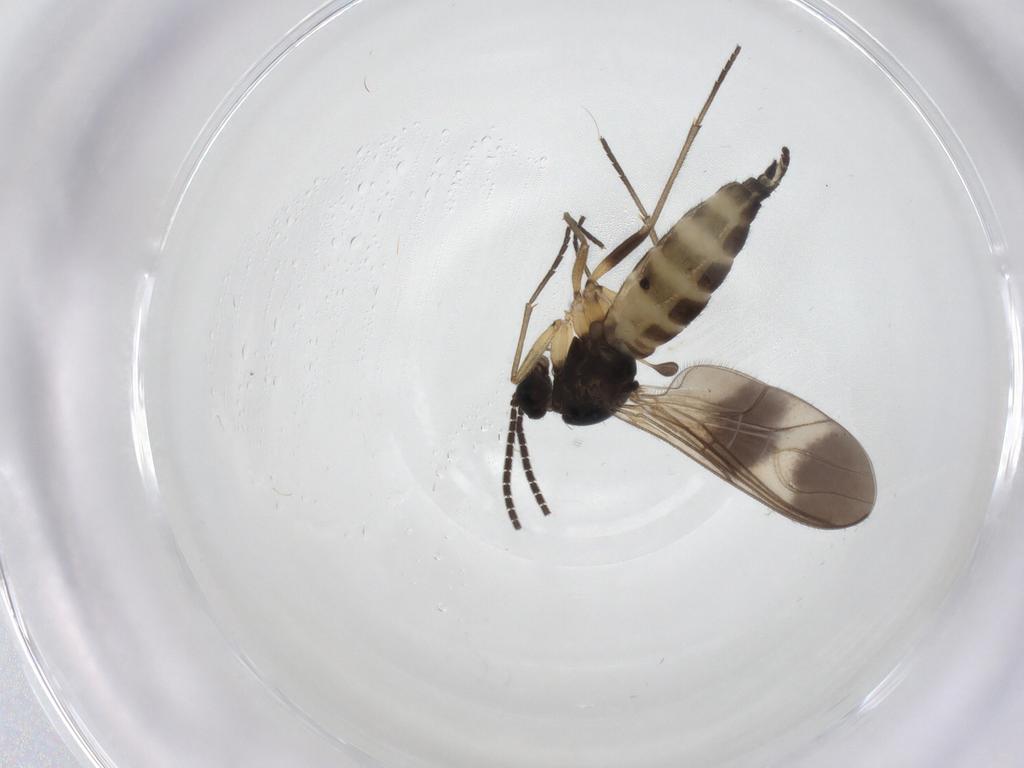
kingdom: Animalia
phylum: Arthropoda
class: Insecta
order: Diptera
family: Sciaridae
